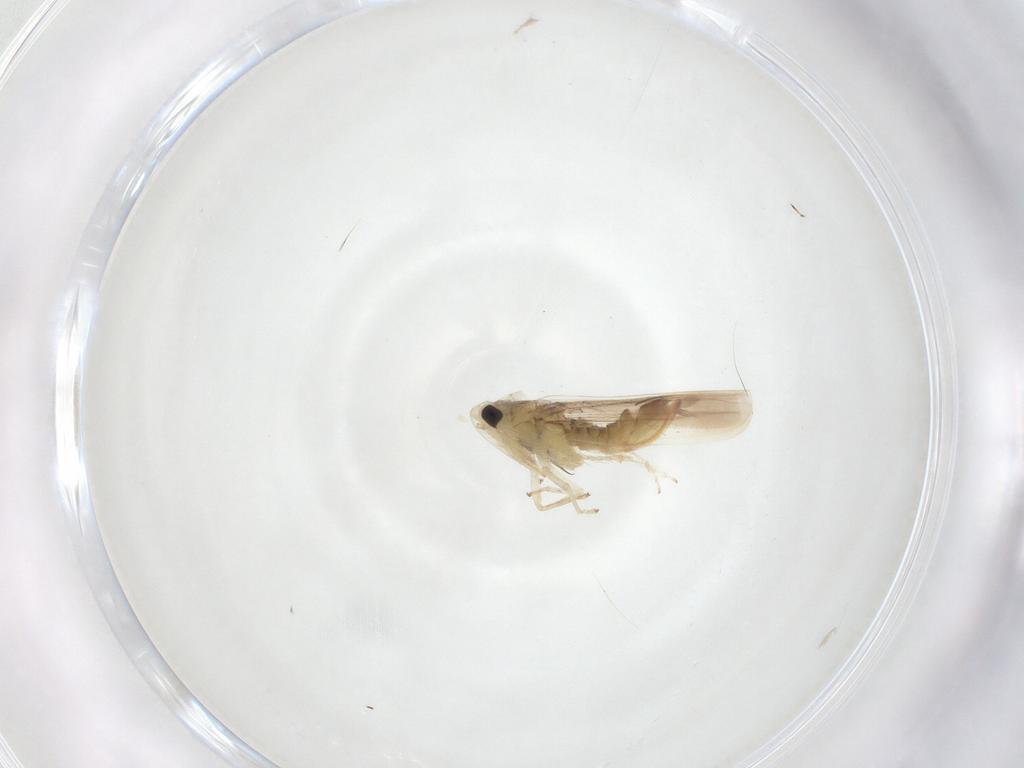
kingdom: Animalia
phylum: Arthropoda
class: Insecta
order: Hemiptera
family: Cicadellidae
